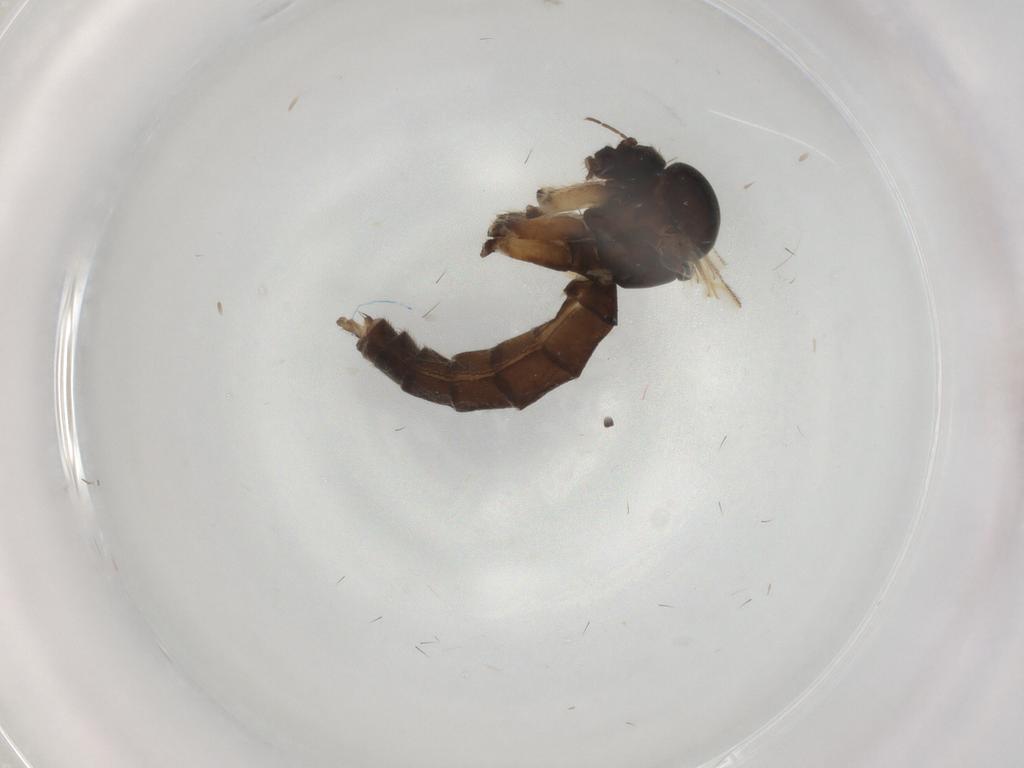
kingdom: Animalia
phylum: Arthropoda
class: Insecta
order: Diptera
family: Mycetophilidae
